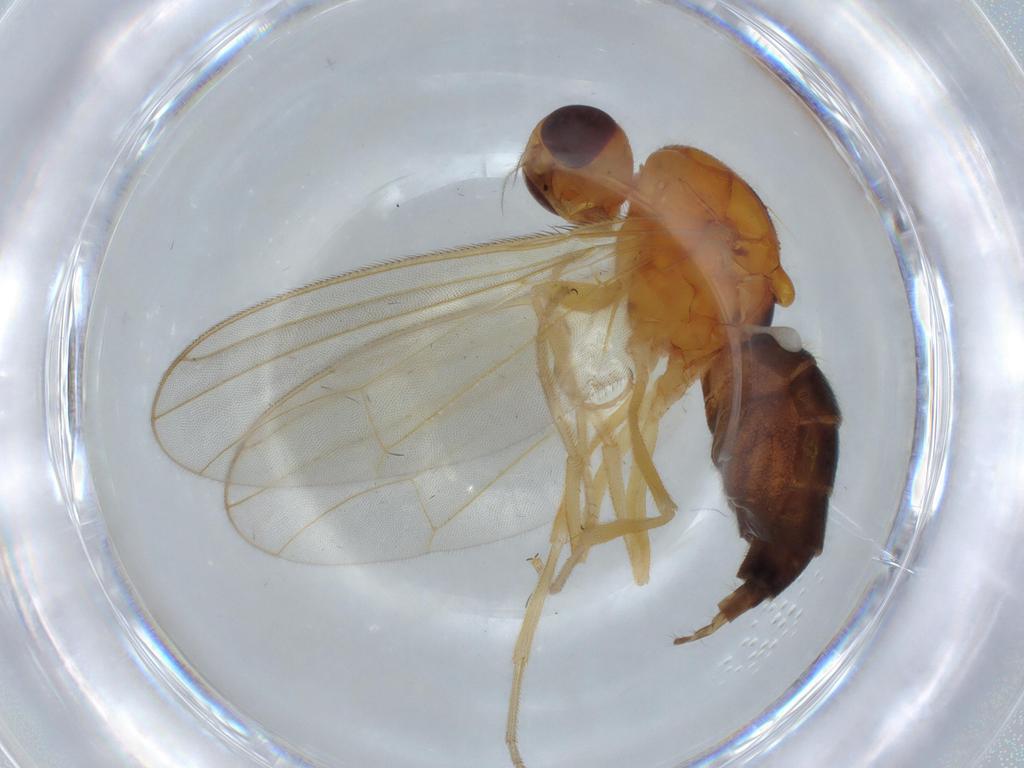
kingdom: Animalia
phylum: Arthropoda
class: Insecta
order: Diptera
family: Drosophilidae
